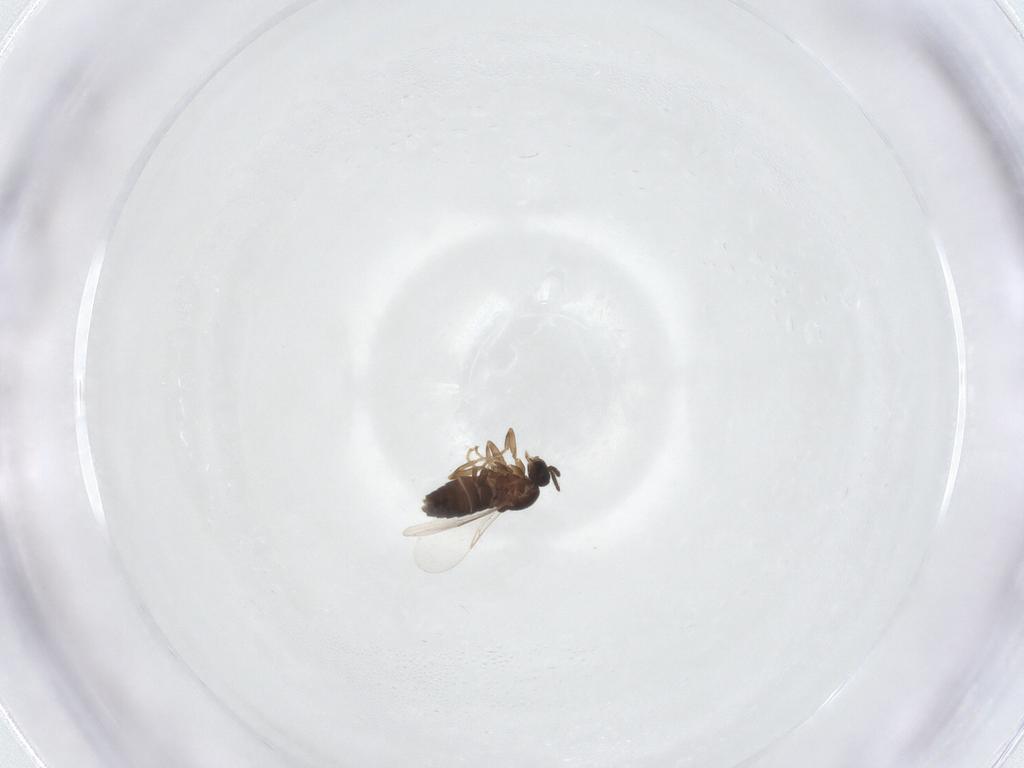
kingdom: Animalia
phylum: Arthropoda
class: Insecta
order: Diptera
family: Scatopsidae
